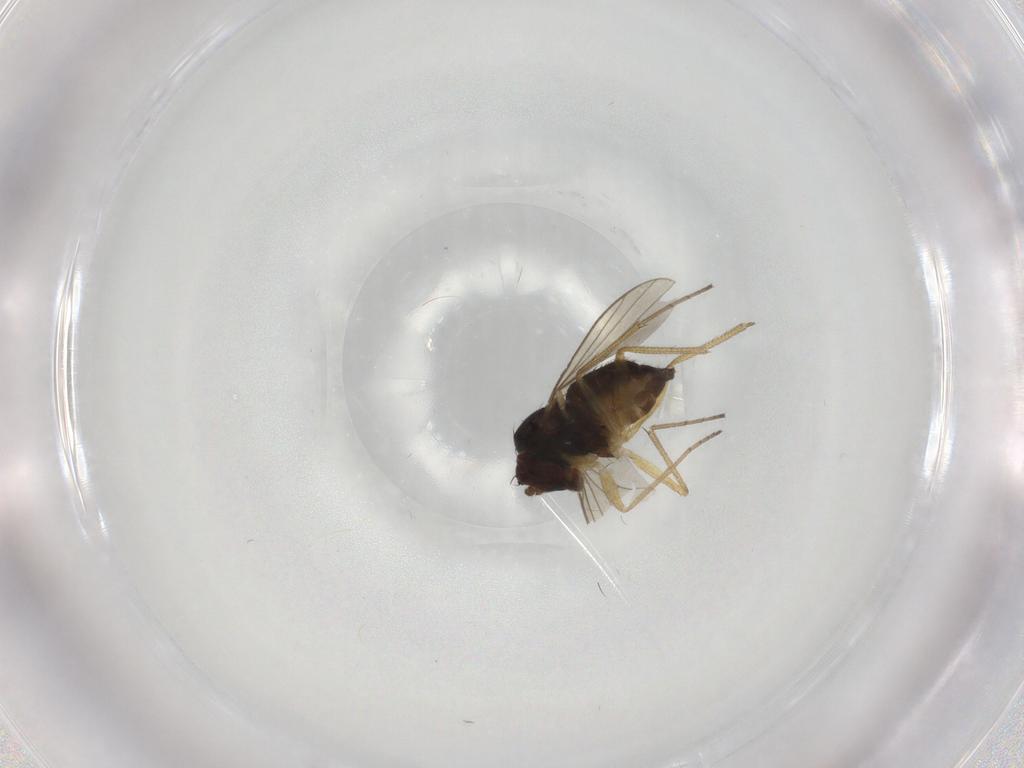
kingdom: Animalia
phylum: Arthropoda
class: Insecta
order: Diptera
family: Dolichopodidae
